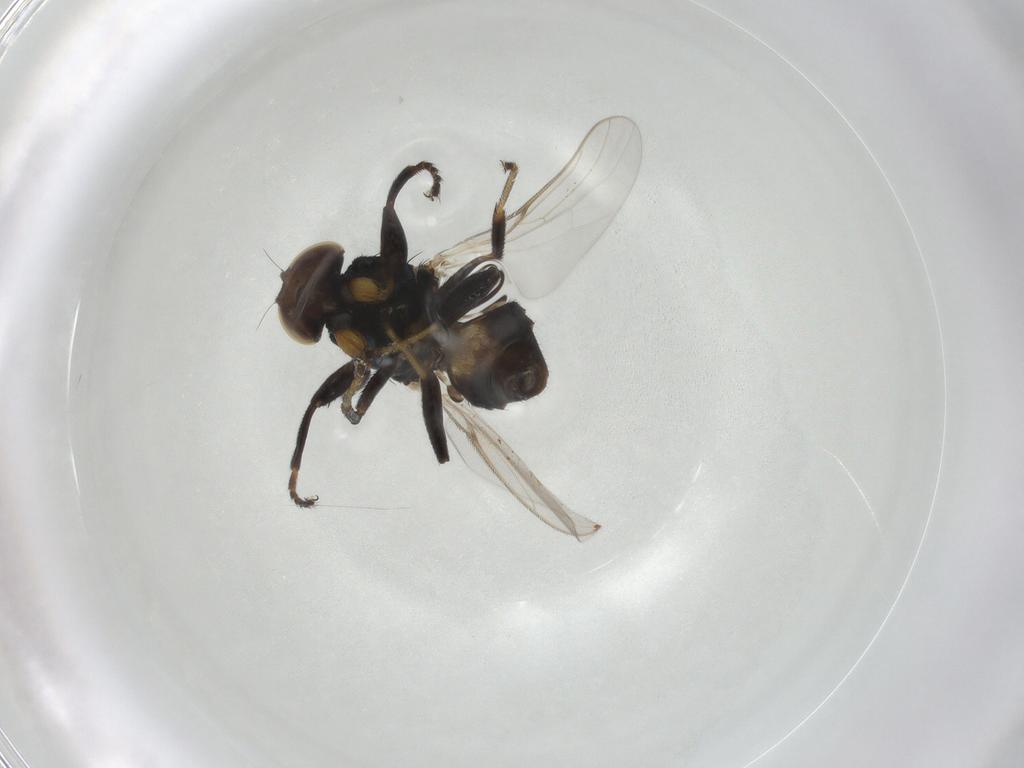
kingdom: Animalia
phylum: Arthropoda
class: Insecta
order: Diptera
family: Chloropidae
